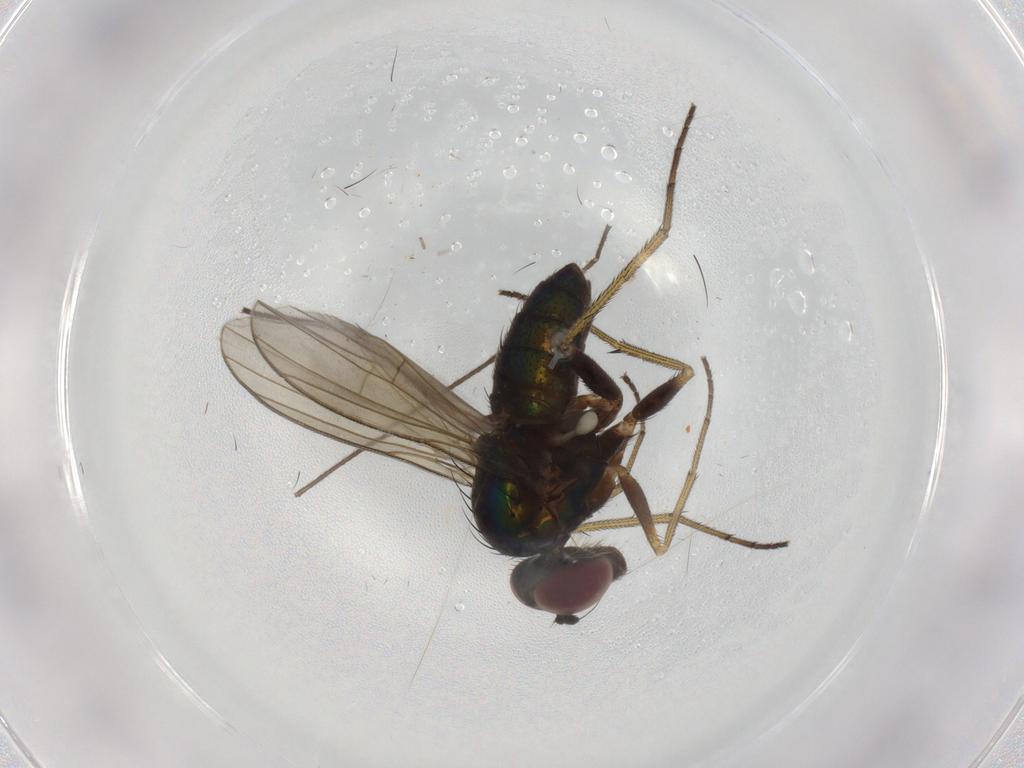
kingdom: Animalia
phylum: Arthropoda
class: Insecta
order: Diptera
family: Dolichopodidae
